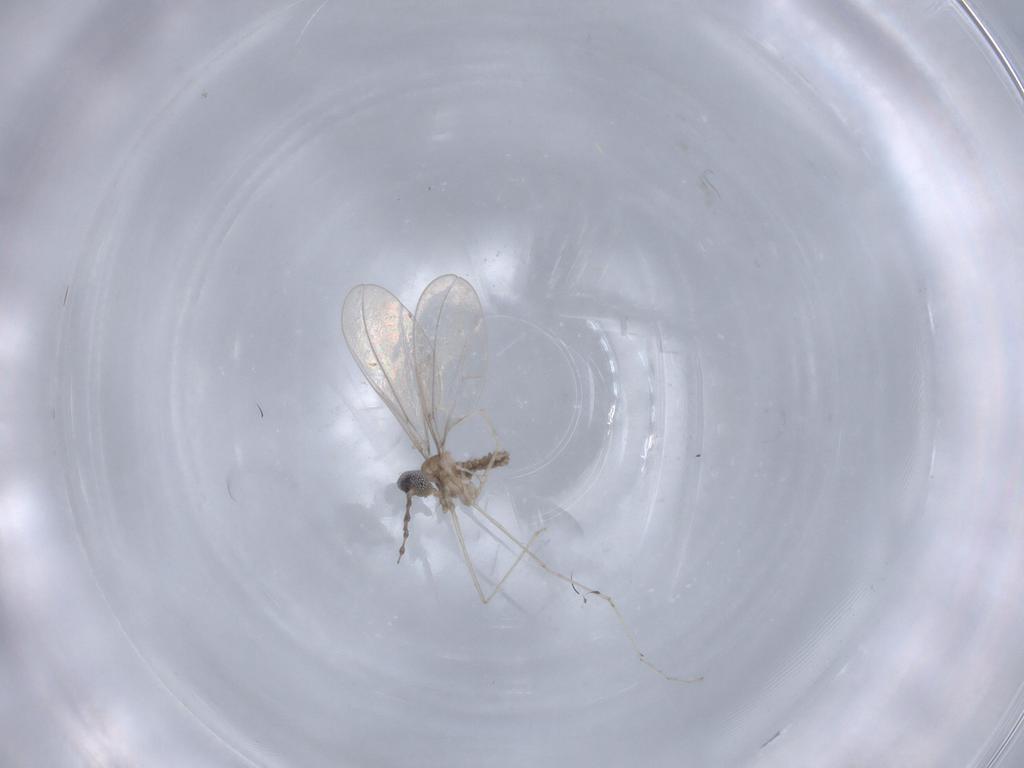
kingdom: Animalia
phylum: Arthropoda
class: Insecta
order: Diptera
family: Cecidomyiidae
